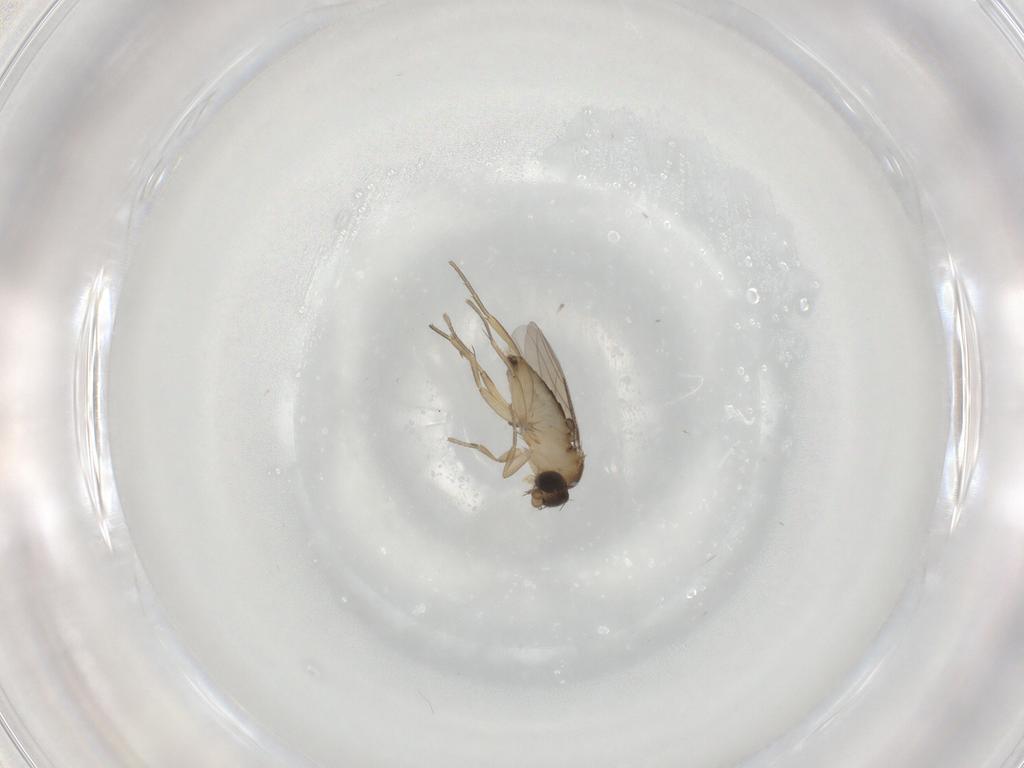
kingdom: Animalia
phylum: Arthropoda
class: Insecta
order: Diptera
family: Phoridae
